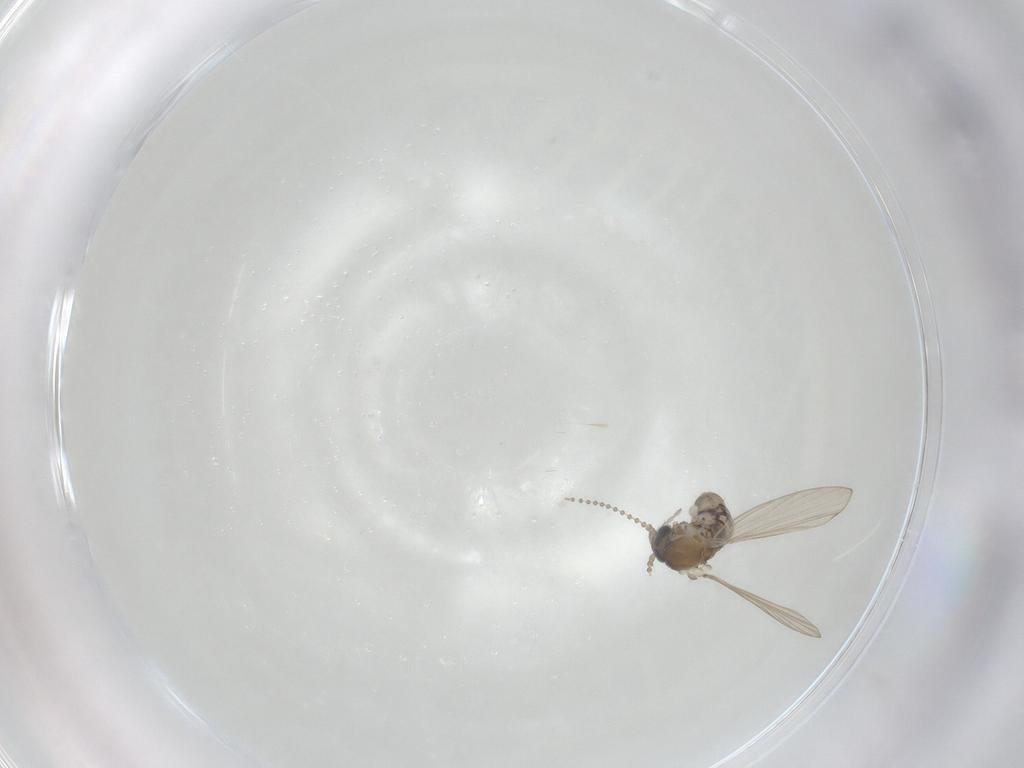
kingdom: Animalia
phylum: Arthropoda
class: Insecta
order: Diptera
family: Psychodidae
